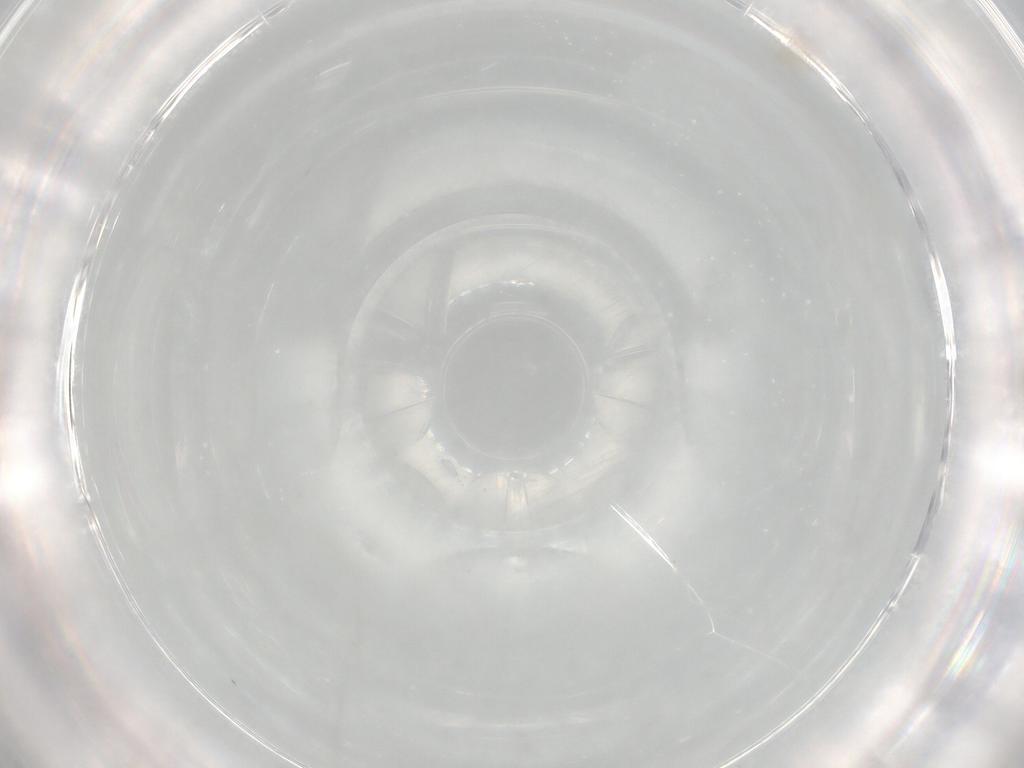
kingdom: Animalia
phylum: Arthropoda
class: Insecta
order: Diptera
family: Ceratopogonidae
